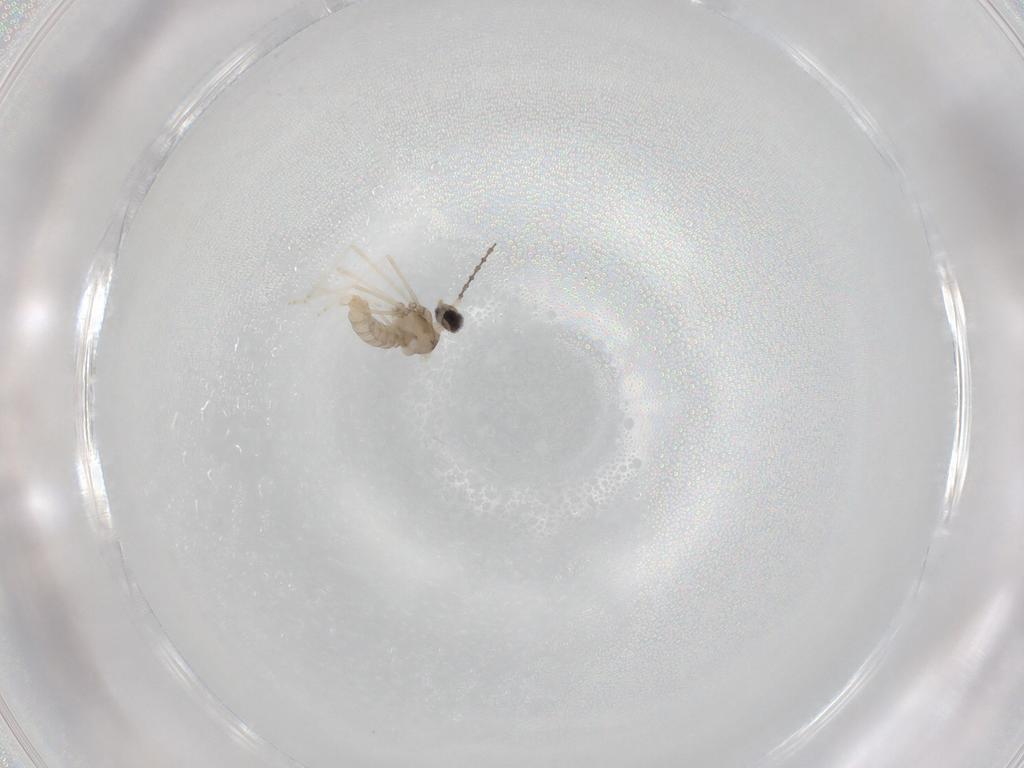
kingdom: Animalia
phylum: Arthropoda
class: Insecta
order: Diptera
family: Cecidomyiidae
